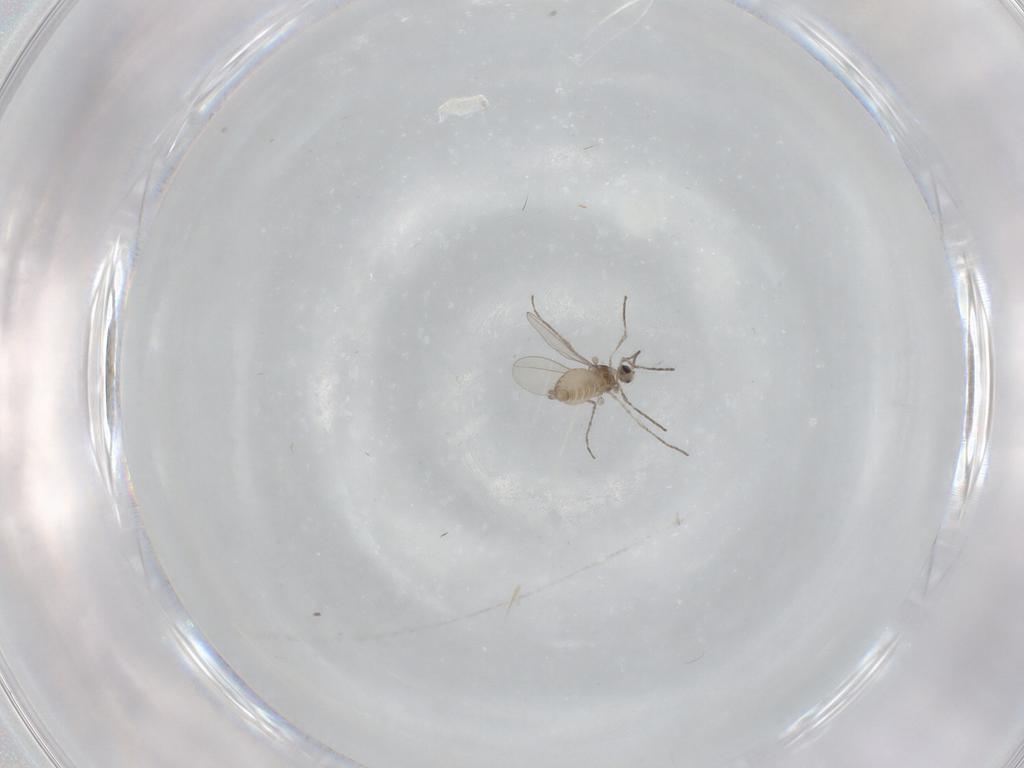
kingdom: Animalia
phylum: Arthropoda
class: Insecta
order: Diptera
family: Cecidomyiidae
